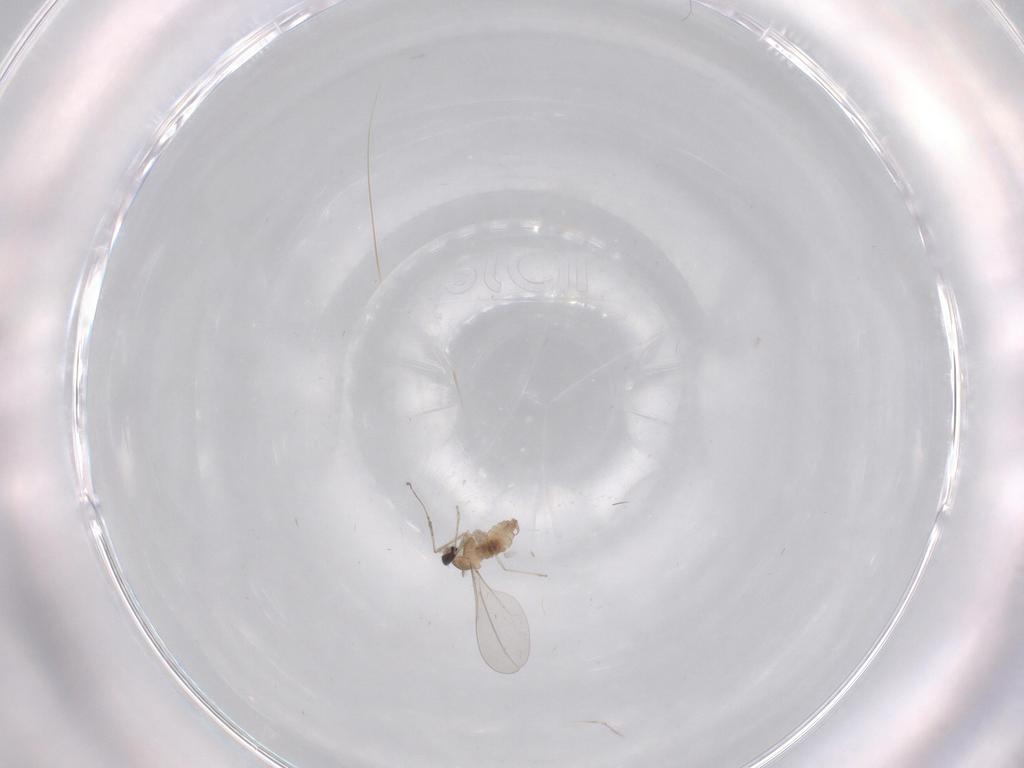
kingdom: Animalia
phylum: Arthropoda
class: Insecta
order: Diptera
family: Cecidomyiidae
